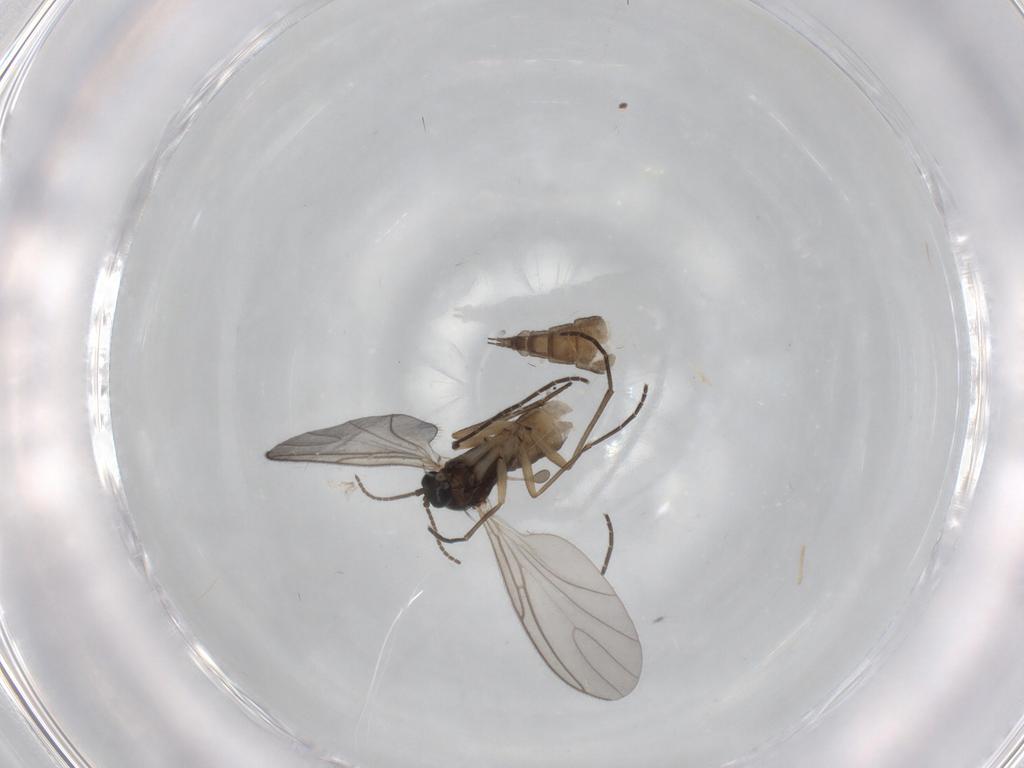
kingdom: Animalia
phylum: Arthropoda
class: Insecta
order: Diptera
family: Sciaridae
